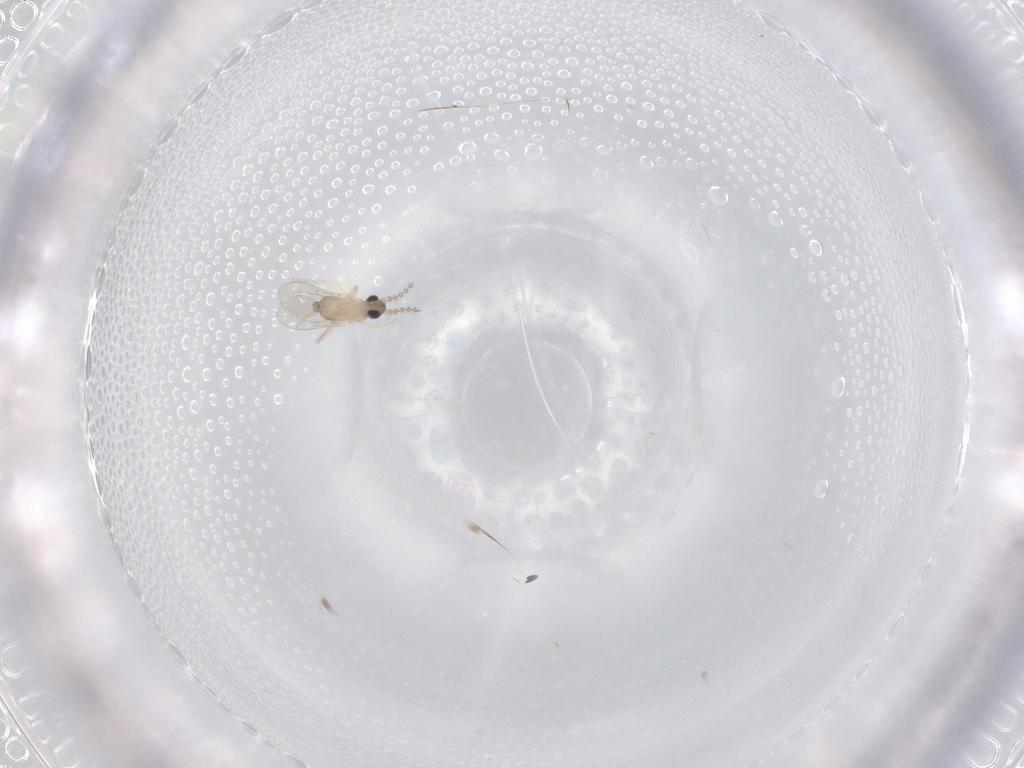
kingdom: Animalia
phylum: Arthropoda
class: Insecta
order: Diptera
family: Cecidomyiidae
